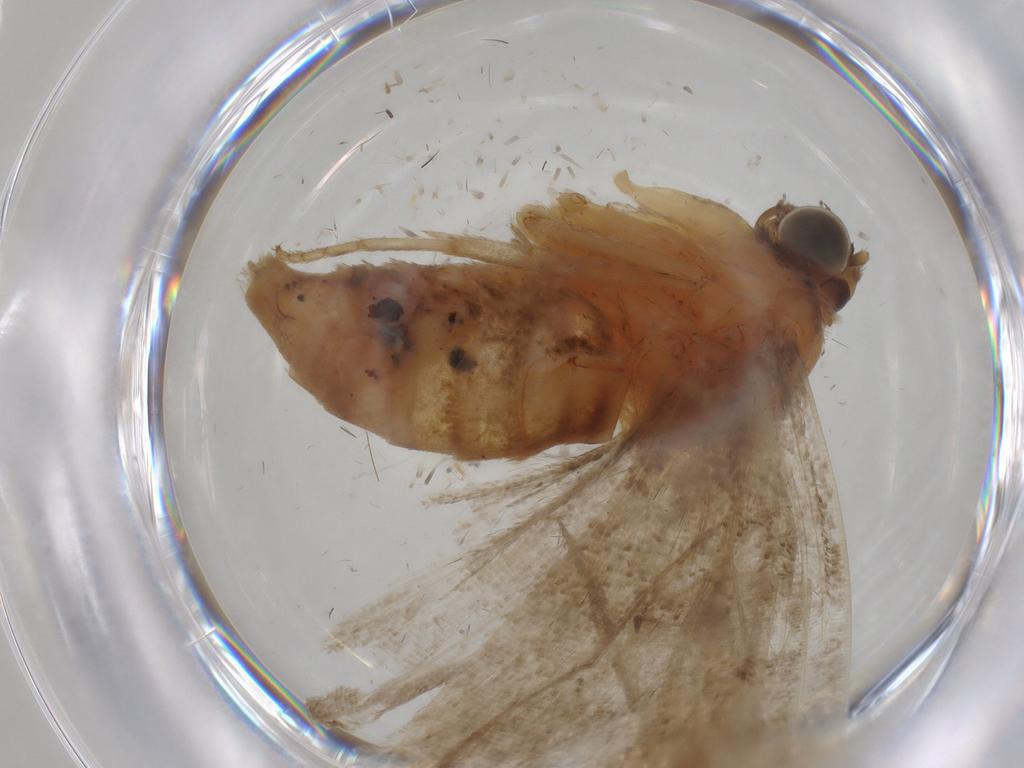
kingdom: Animalia
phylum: Arthropoda
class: Insecta
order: Lepidoptera
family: Geometridae
